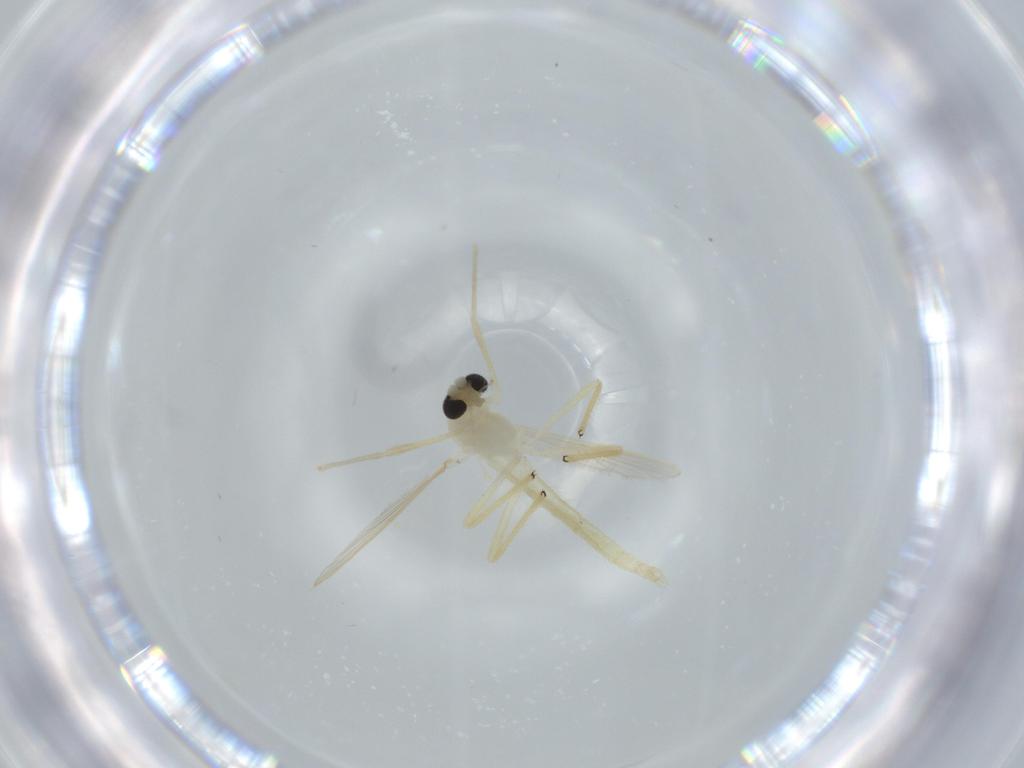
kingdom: Animalia
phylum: Arthropoda
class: Insecta
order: Diptera
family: Chironomidae
